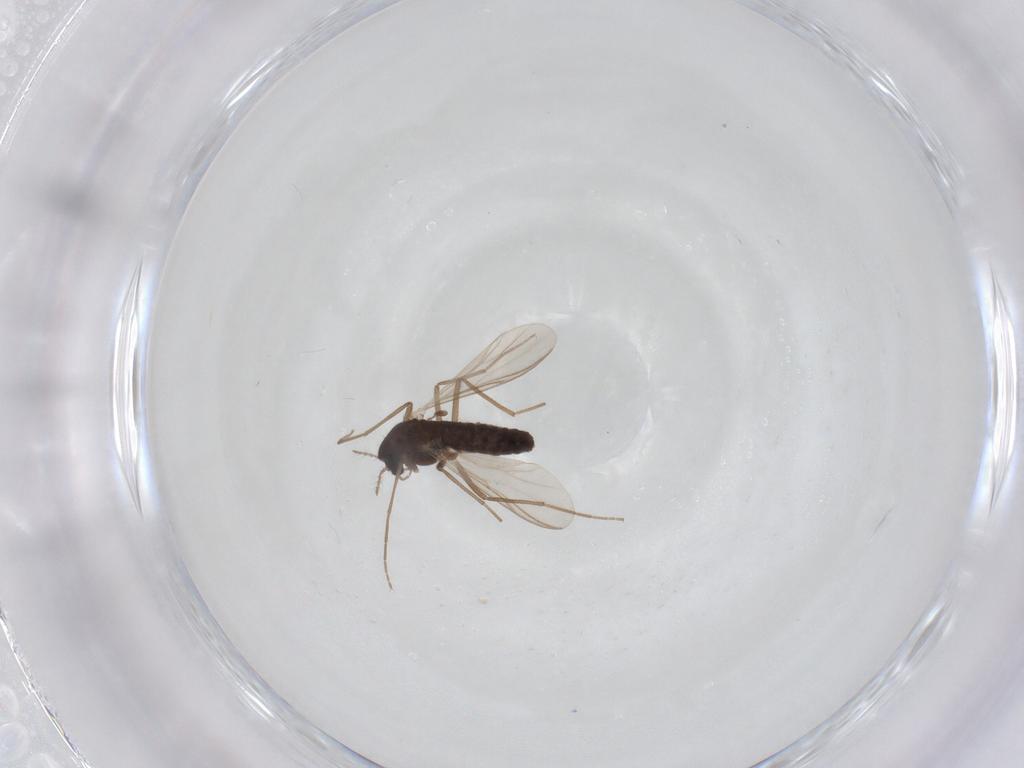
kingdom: Animalia
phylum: Arthropoda
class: Insecta
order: Diptera
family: Chironomidae
